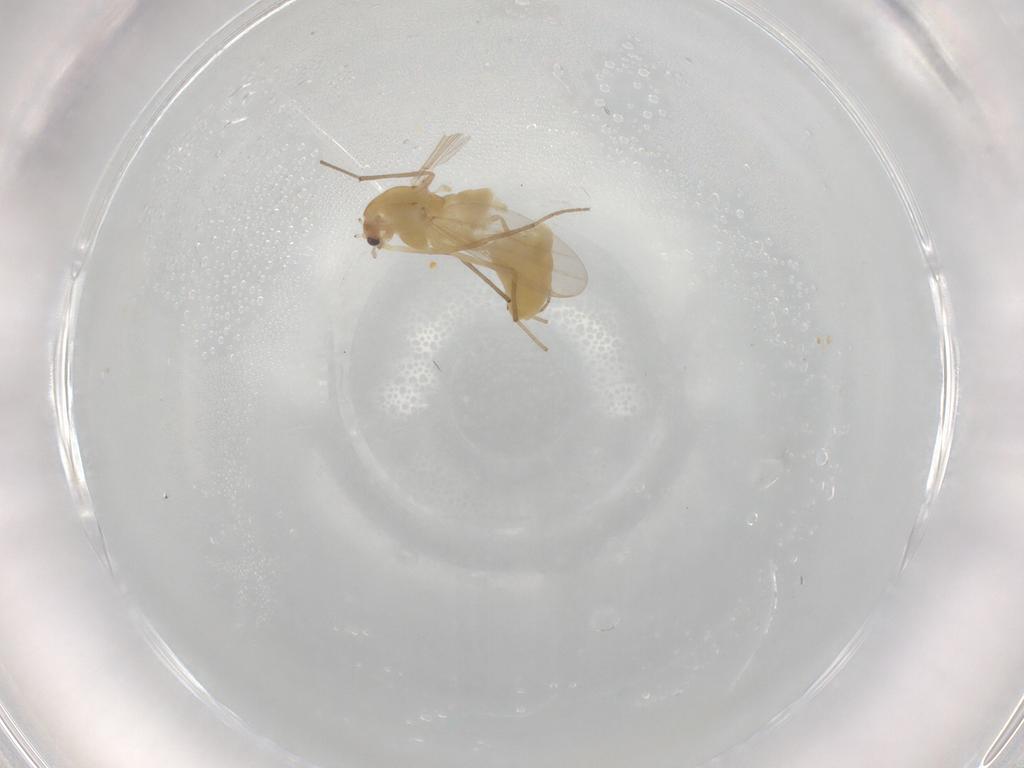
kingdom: Animalia
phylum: Arthropoda
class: Insecta
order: Diptera
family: Chironomidae
